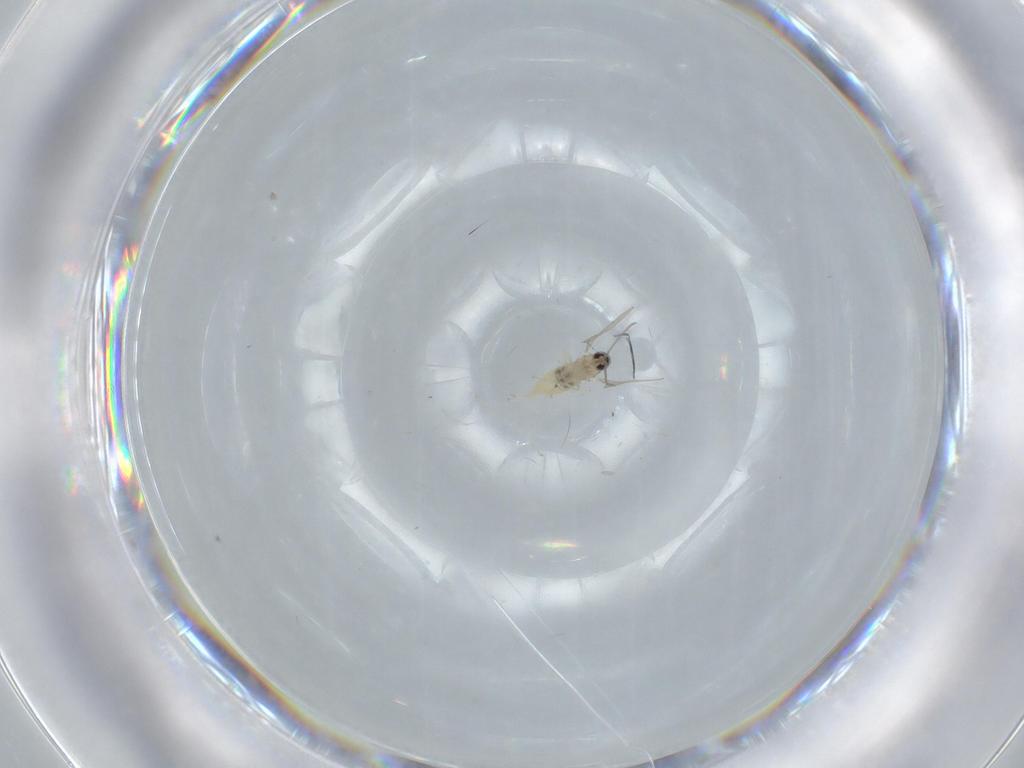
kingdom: Animalia
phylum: Arthropoda
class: Insecta
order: Diptera
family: Cecidomyiidae
